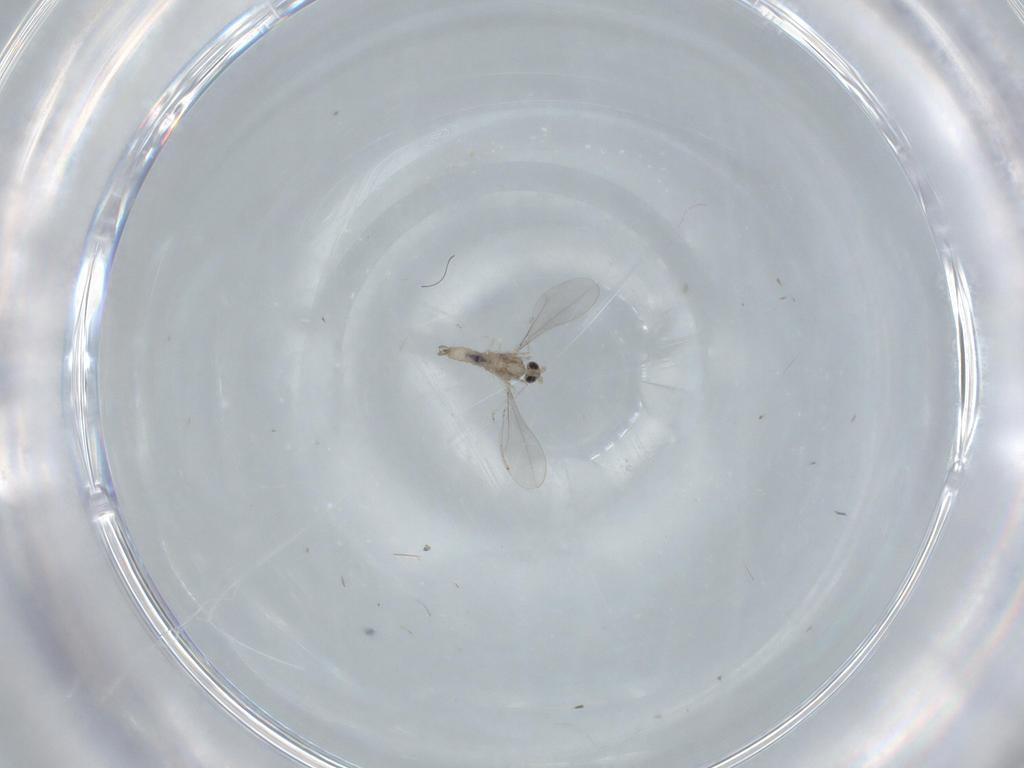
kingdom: Animalia
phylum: Arthropoda
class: Insecta
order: Diptera
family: Cecidomyiidae
